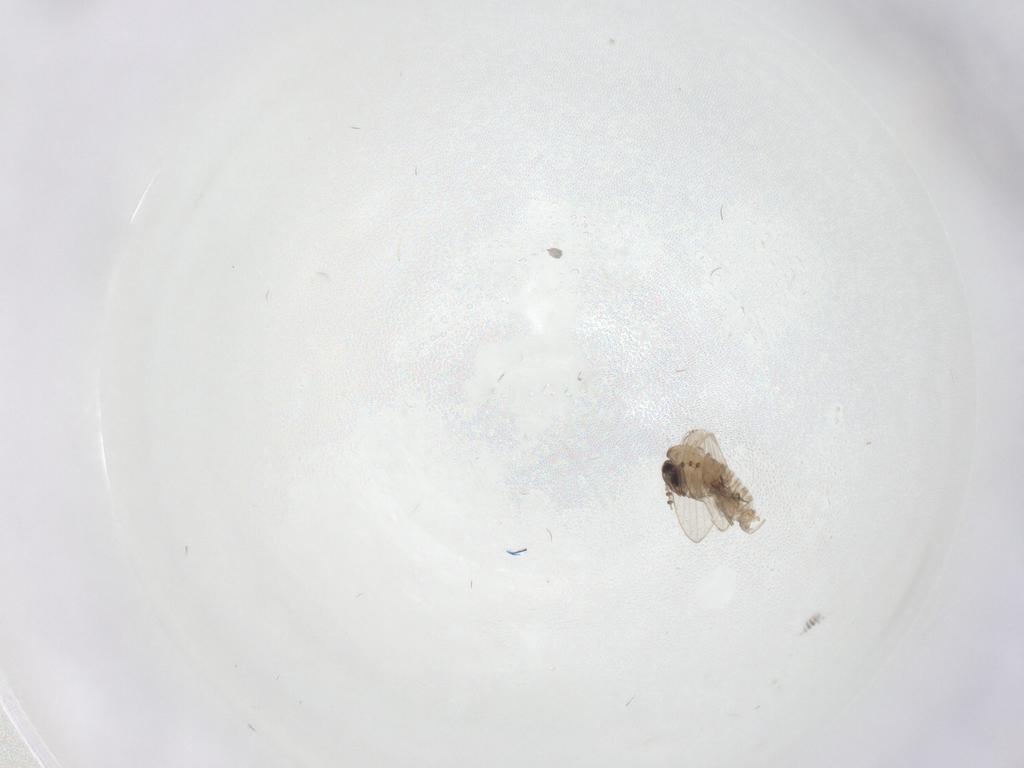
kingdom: Animalia
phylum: Arthropoda
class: Insecta
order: Diptera
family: Psychodidae
